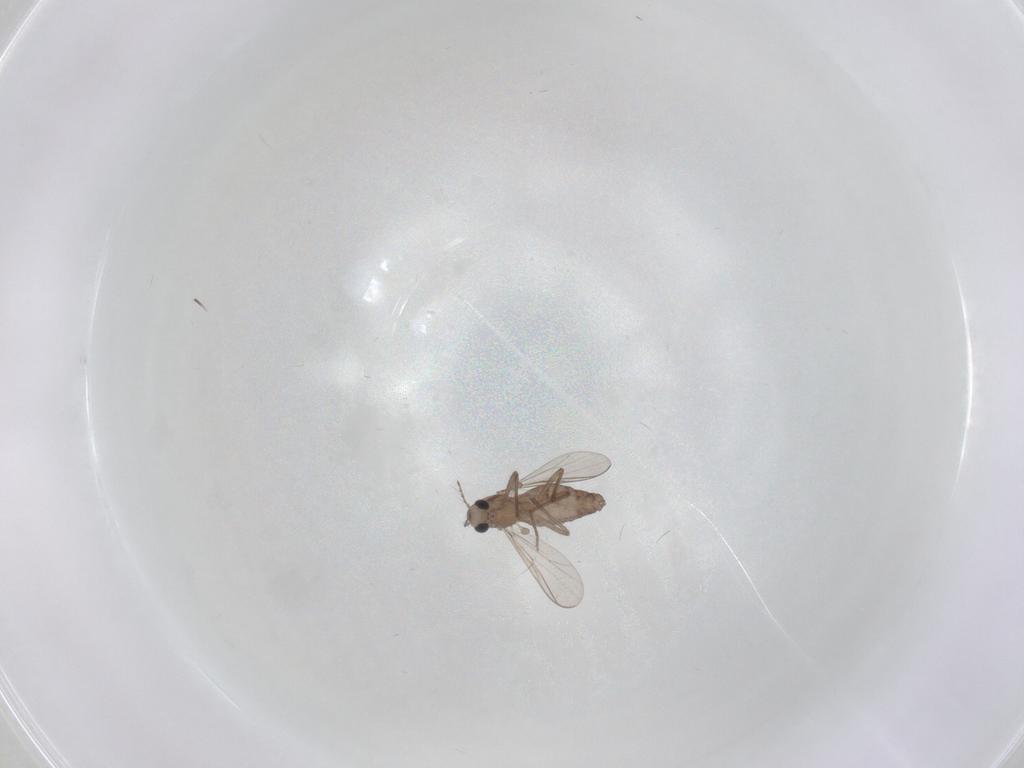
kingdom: Animalia
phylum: Arthropoda
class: Insecta
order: Diptera
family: Chironomidae
